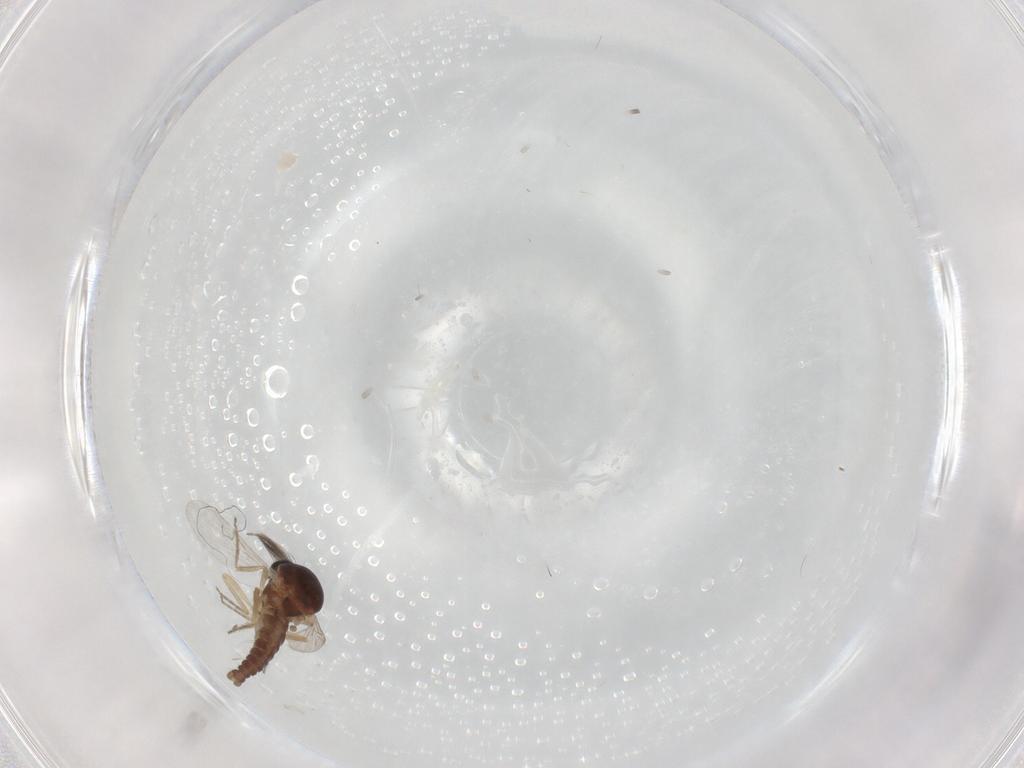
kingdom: Animalia
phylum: Arthropoda
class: Insecta
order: Diptera
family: Ceratopogonidae
